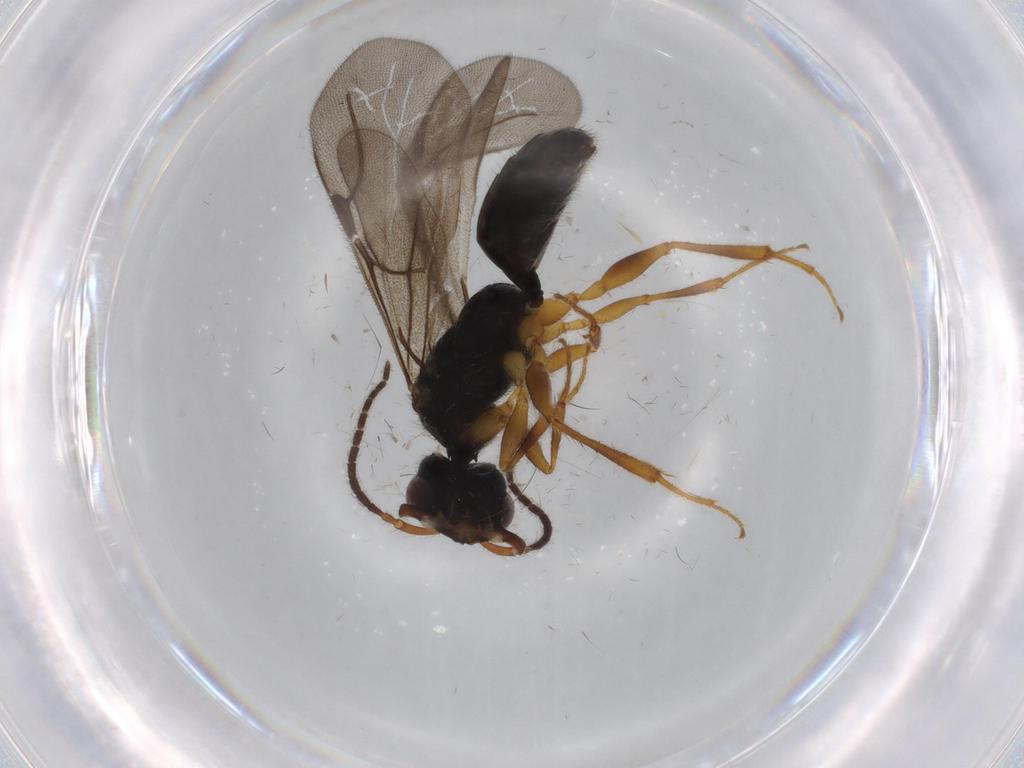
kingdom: Animalia
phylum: Arthropoda
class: Insecta
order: Hymenoptera
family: Bethylidae
